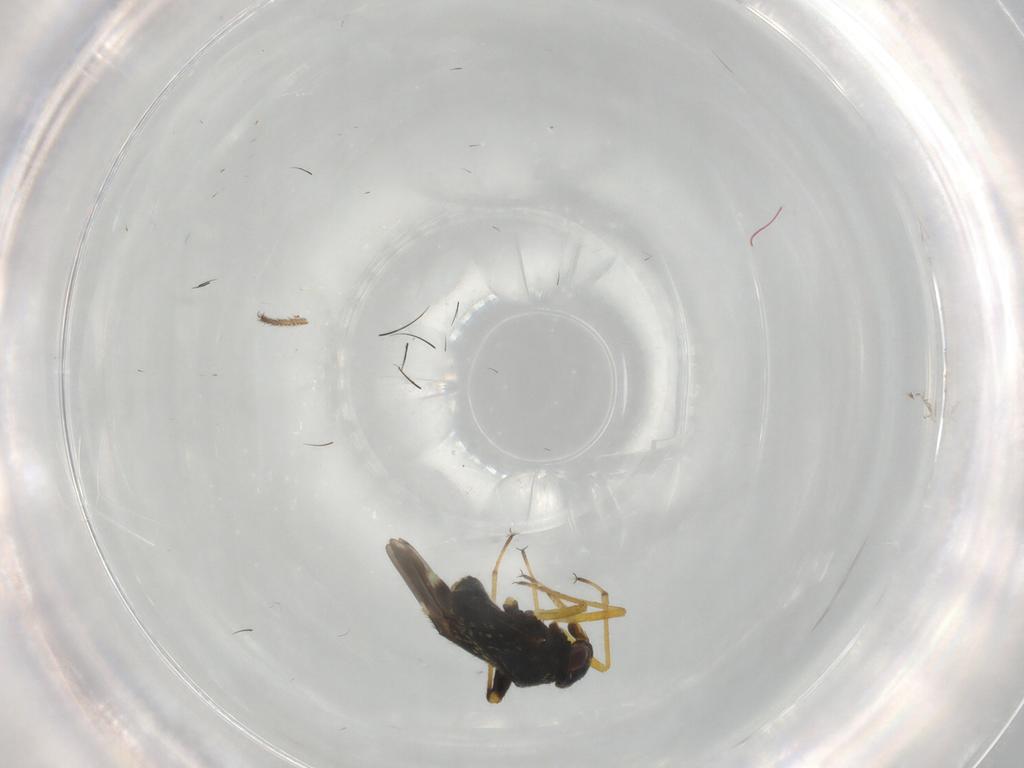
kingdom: Animalia
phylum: Arthropoda
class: Insecta
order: Hemiptera
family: Miridae
